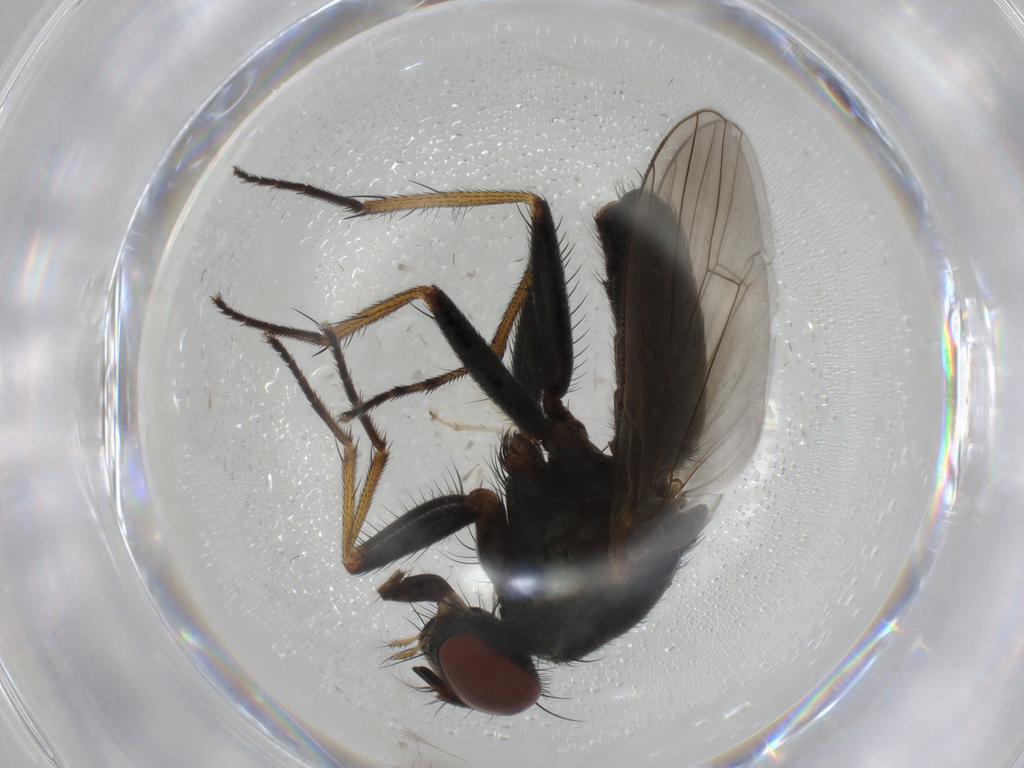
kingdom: Animalia
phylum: Arthropoda
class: Insecta
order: Diptera
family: Muscidae
